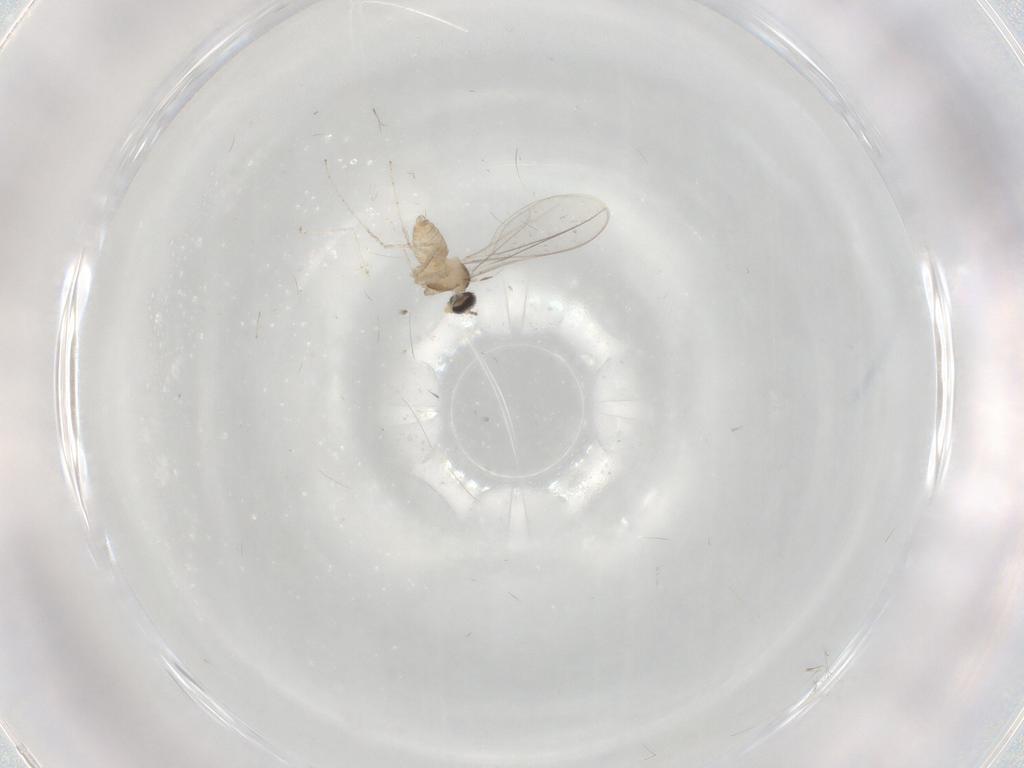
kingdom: Animalia
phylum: Arthropoda
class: Insecta
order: Diptera
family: Cecidomyiidae
